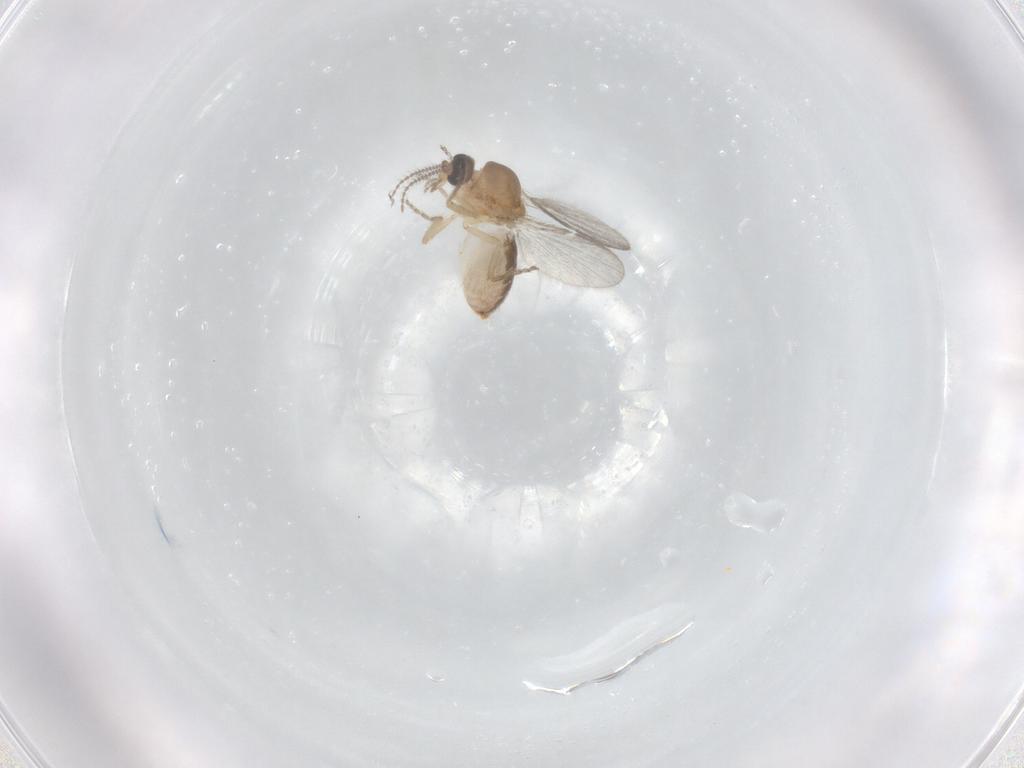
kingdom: Animalia
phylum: Arthropoda
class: Insecta
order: Diptera
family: Ceratopogonidae
